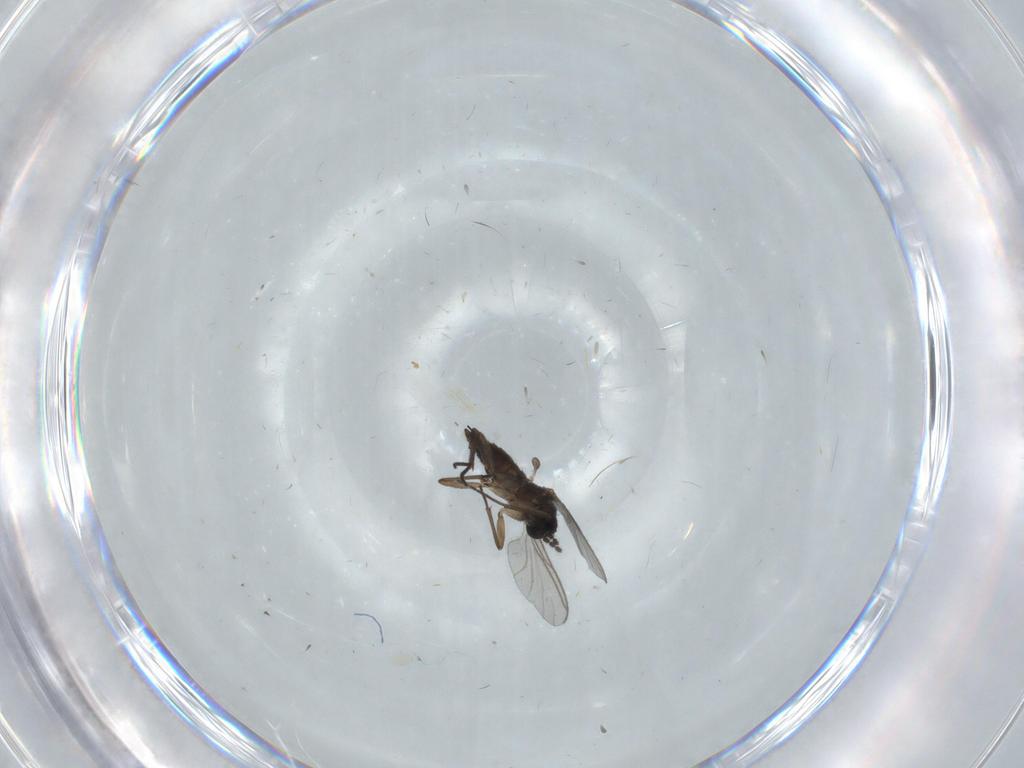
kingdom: Animalia
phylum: Arthropoda
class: Insecta
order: Diptera
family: Sciaridae
